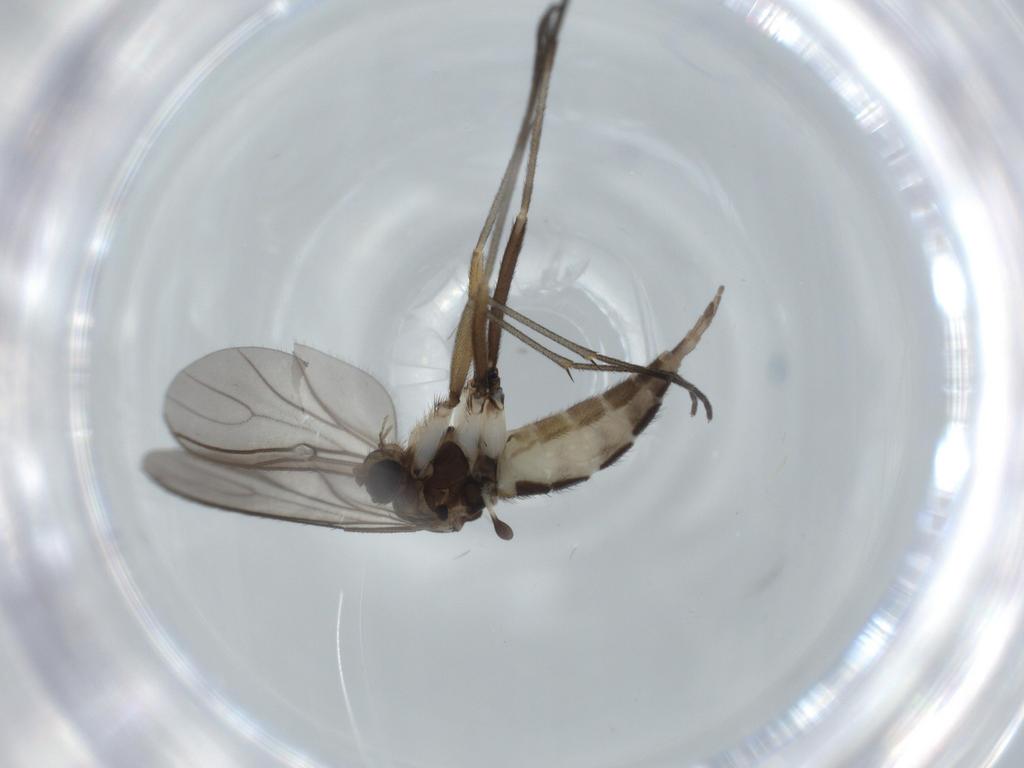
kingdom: Animalia
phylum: Arthropoda
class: Insecta
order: Diptera
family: Sciaridae
